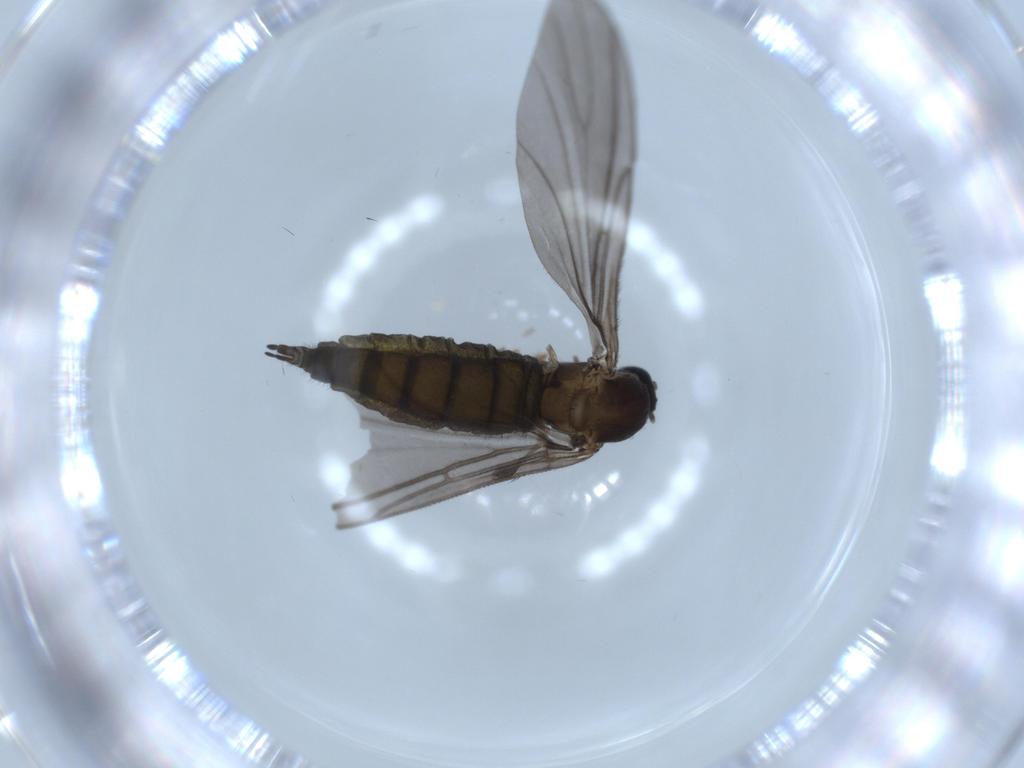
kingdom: Animalia
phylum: Arthropoda
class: Insecta
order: Diptera
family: Sciaridae
